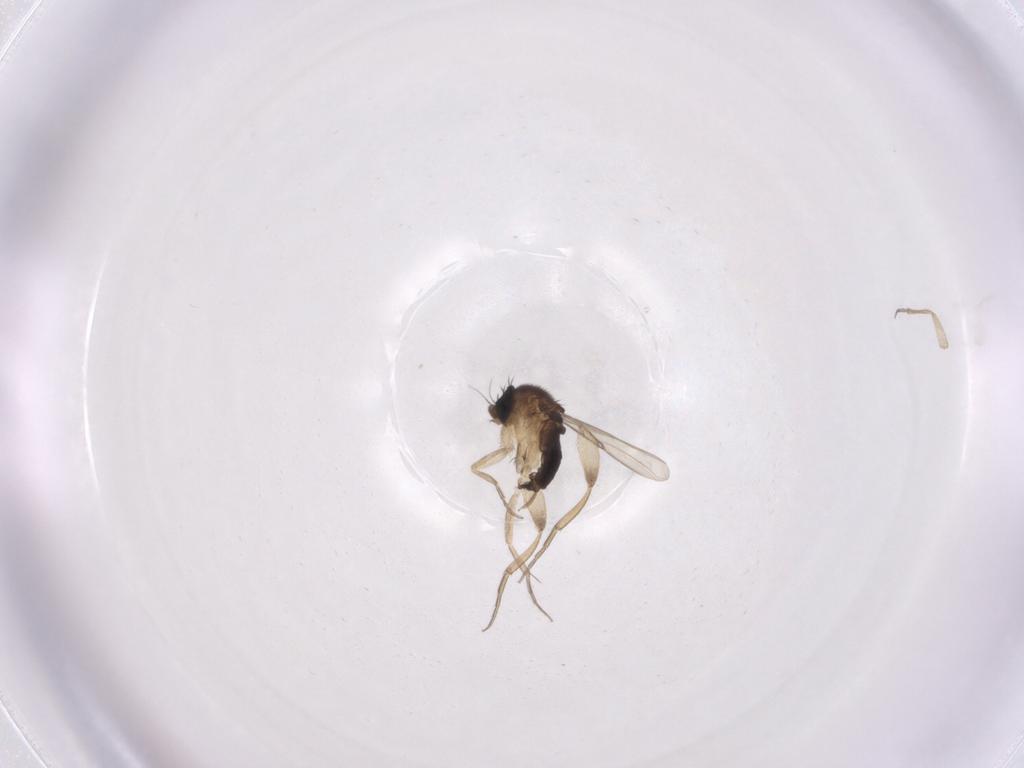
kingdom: Animalia
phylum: Arthropoda
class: Insecta
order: Diptera
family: Phoridae
